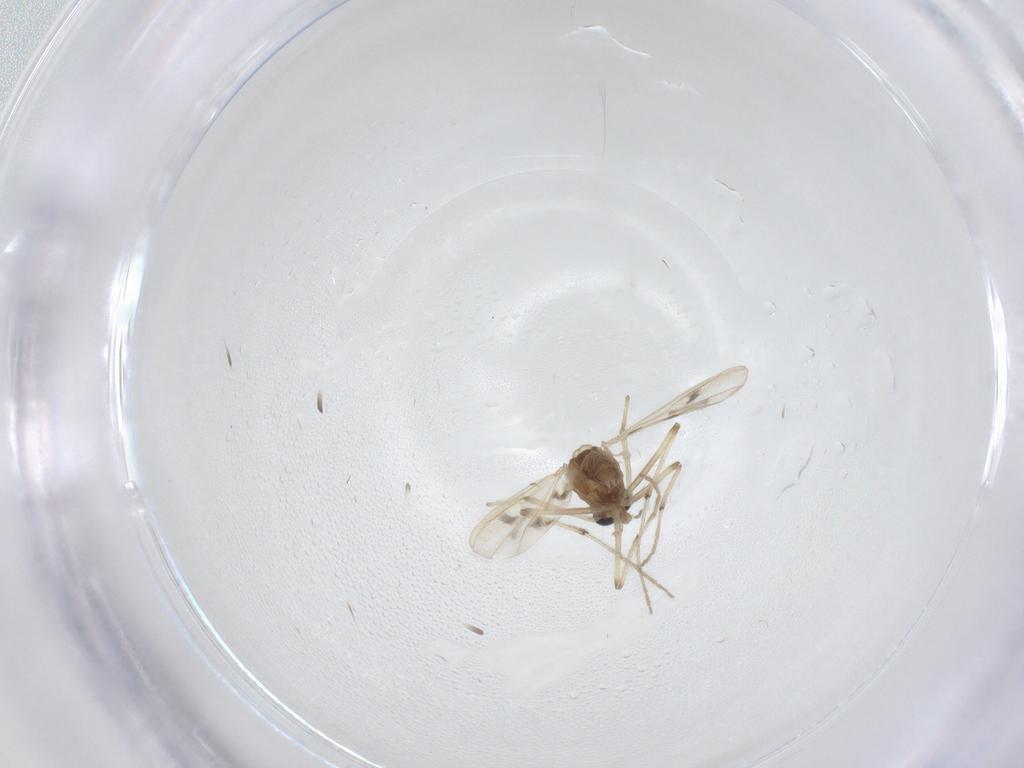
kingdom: Animalia
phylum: Arthropoda
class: Insecta
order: Diptera
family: Chironomidae
